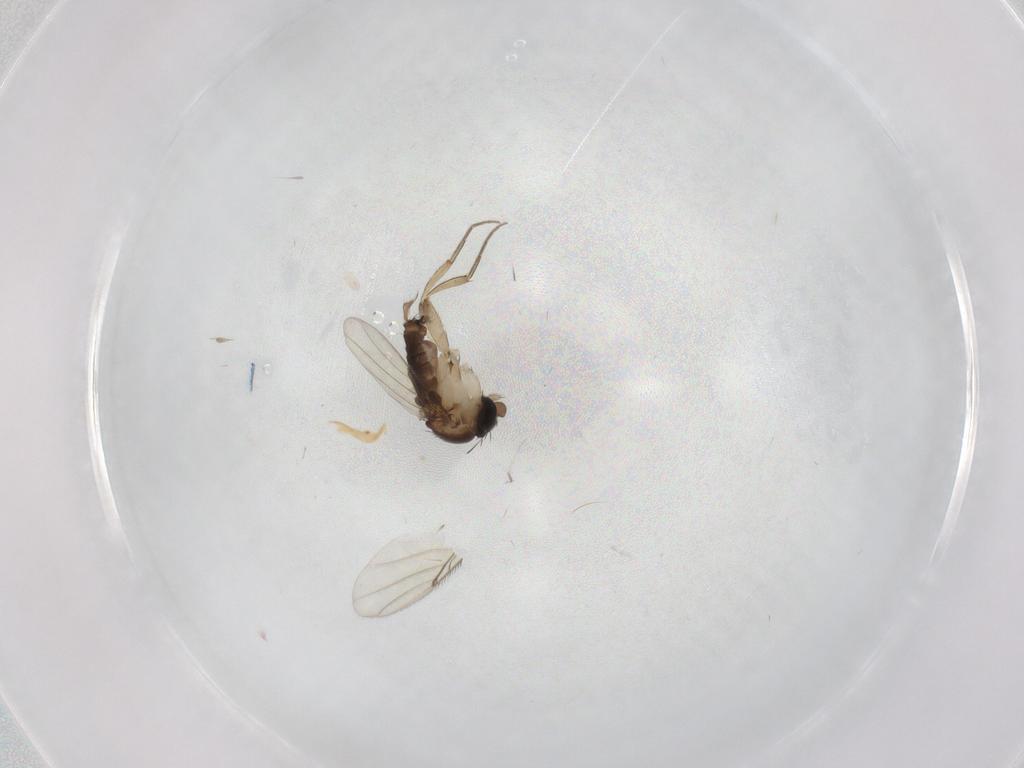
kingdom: Animalia
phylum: Arthropoda
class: Insecta
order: Diptera
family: Cecidomyiidae
